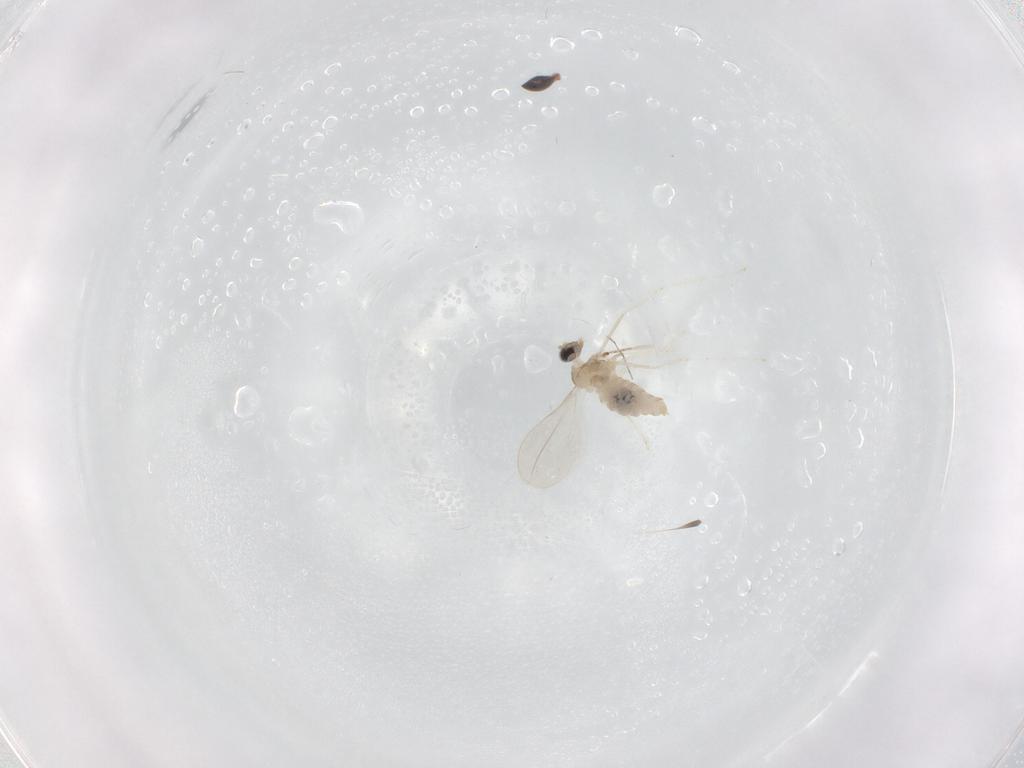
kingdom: Animalia
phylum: Arthropoda
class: Insecta
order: Diptera
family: Cecidomyiidae
